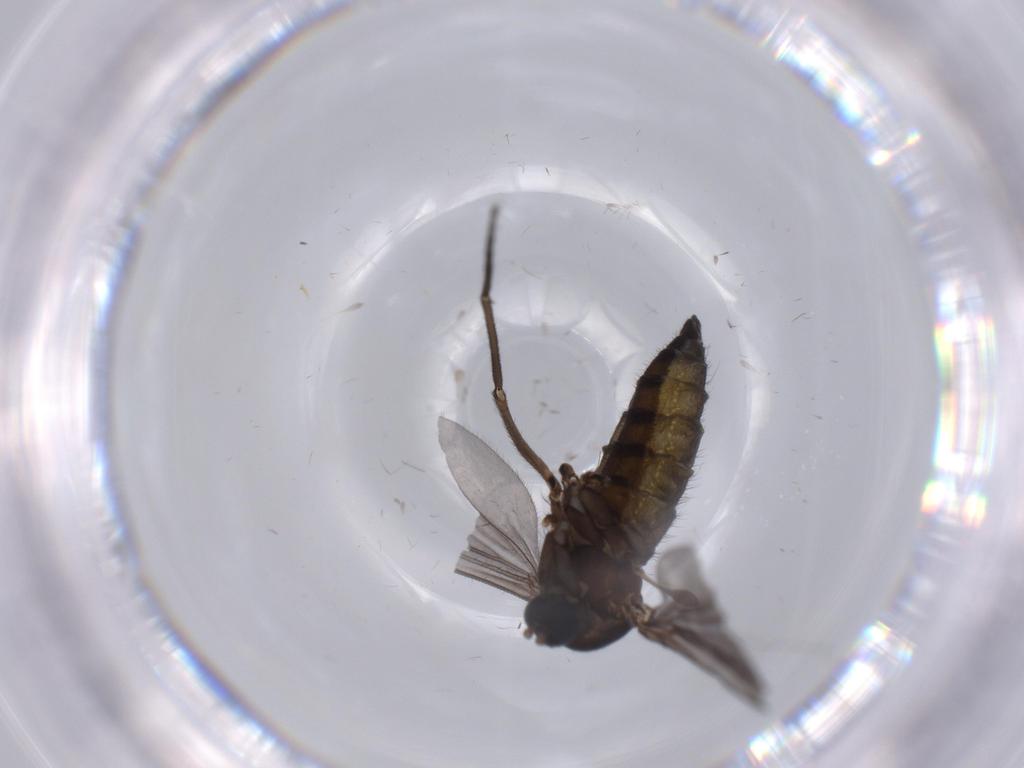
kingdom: Animalia
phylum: Arthropoda
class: Insecta
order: Diptera
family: Sciaridae
